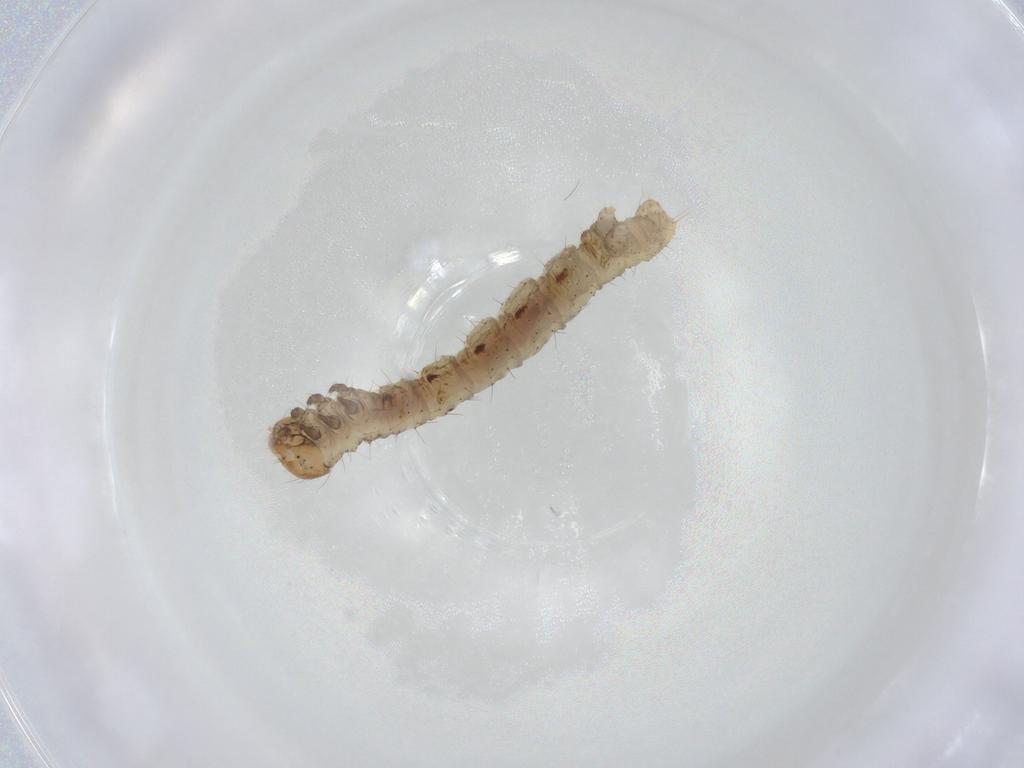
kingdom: Animalia
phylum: Arthropoda
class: Insecta
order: Lepidoptera
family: Geometridae
